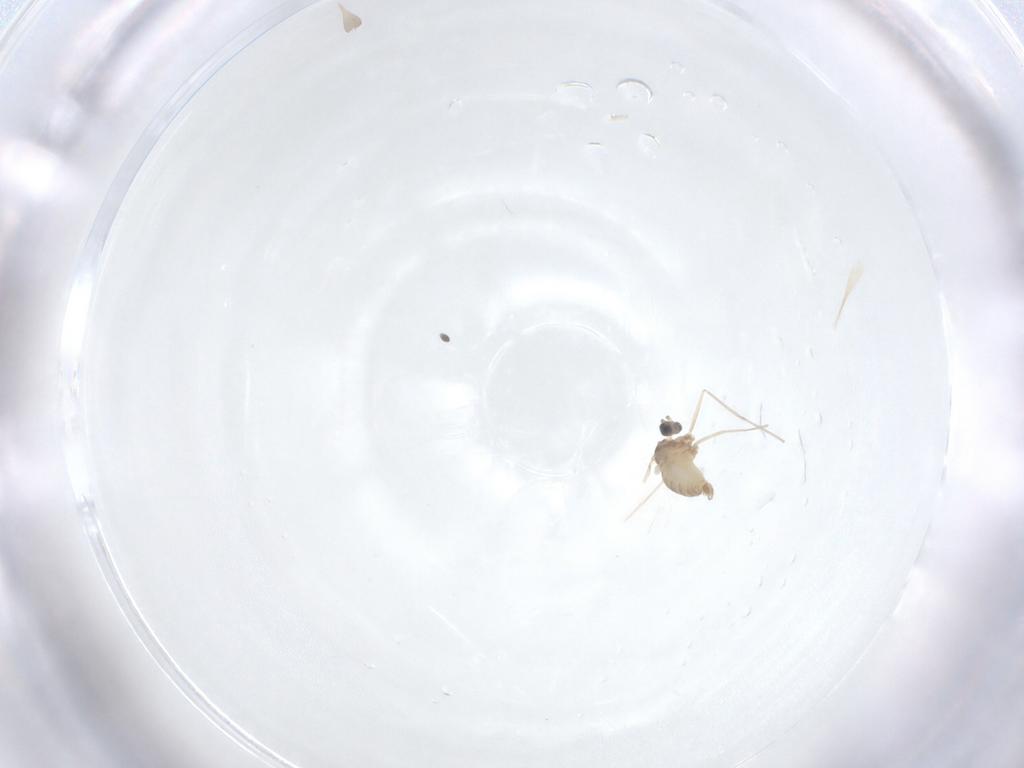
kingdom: Animalia
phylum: Arthropoda
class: Insecta
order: Diptera
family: Cecidomyiidae
